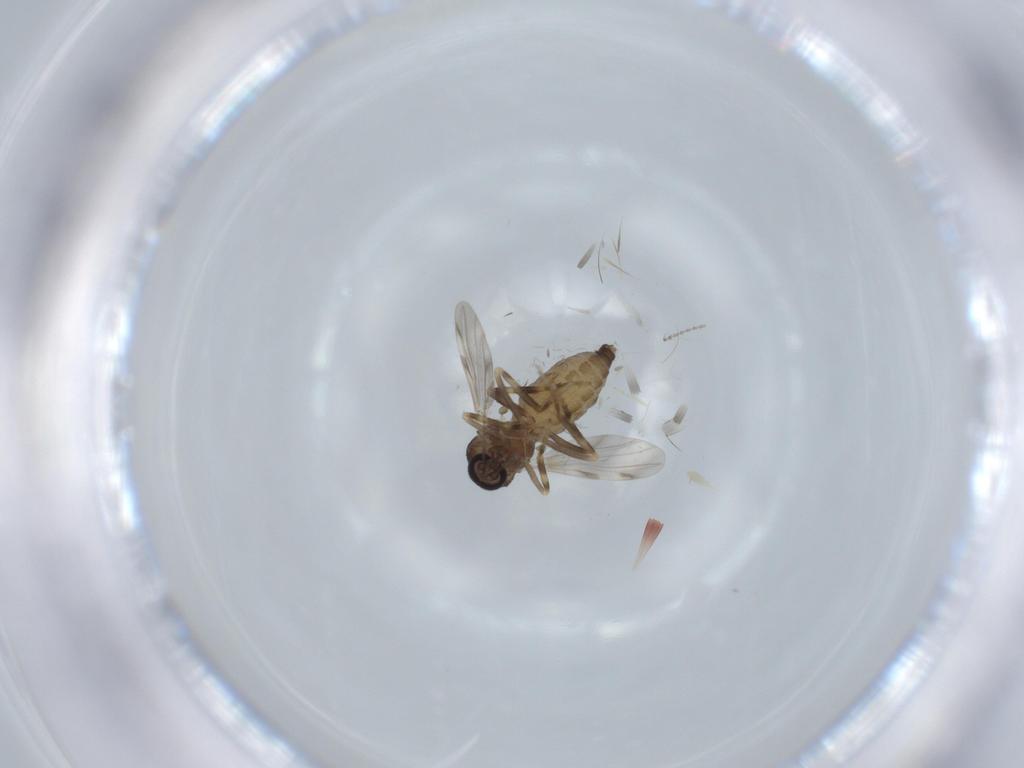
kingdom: Animalia
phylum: Arthropoda
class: Insecta
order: Diptera
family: Ceratopogonidae
